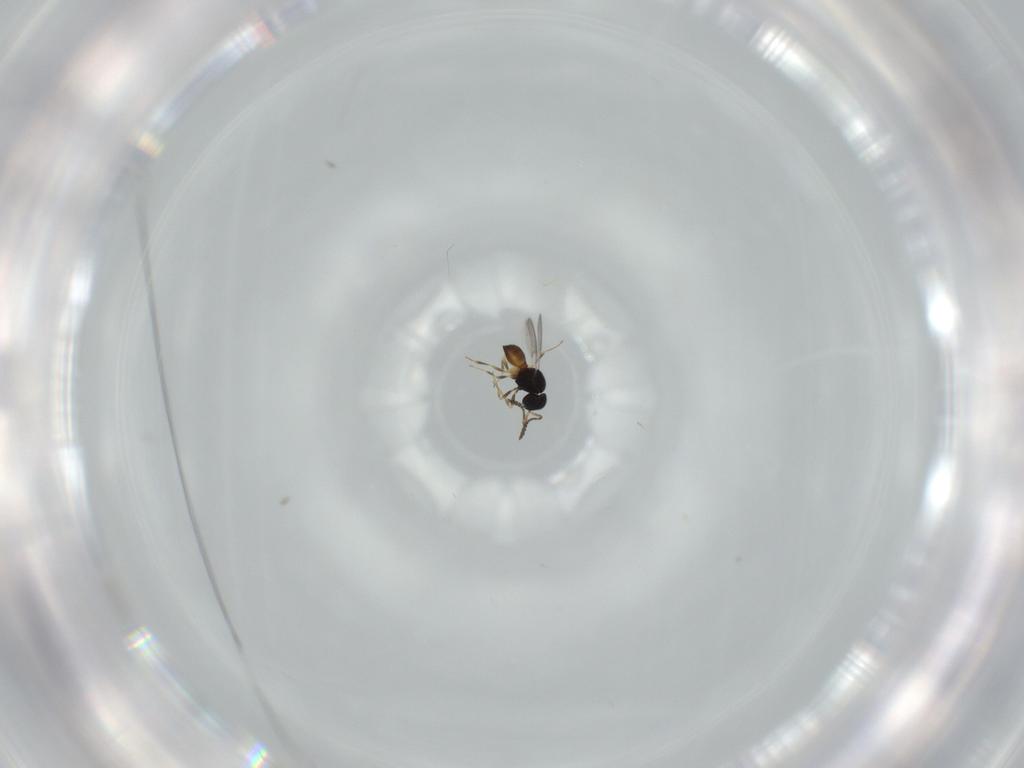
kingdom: Animalia
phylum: Arthropoda
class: Insecta
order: Hymenoptera
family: Scelionidae
